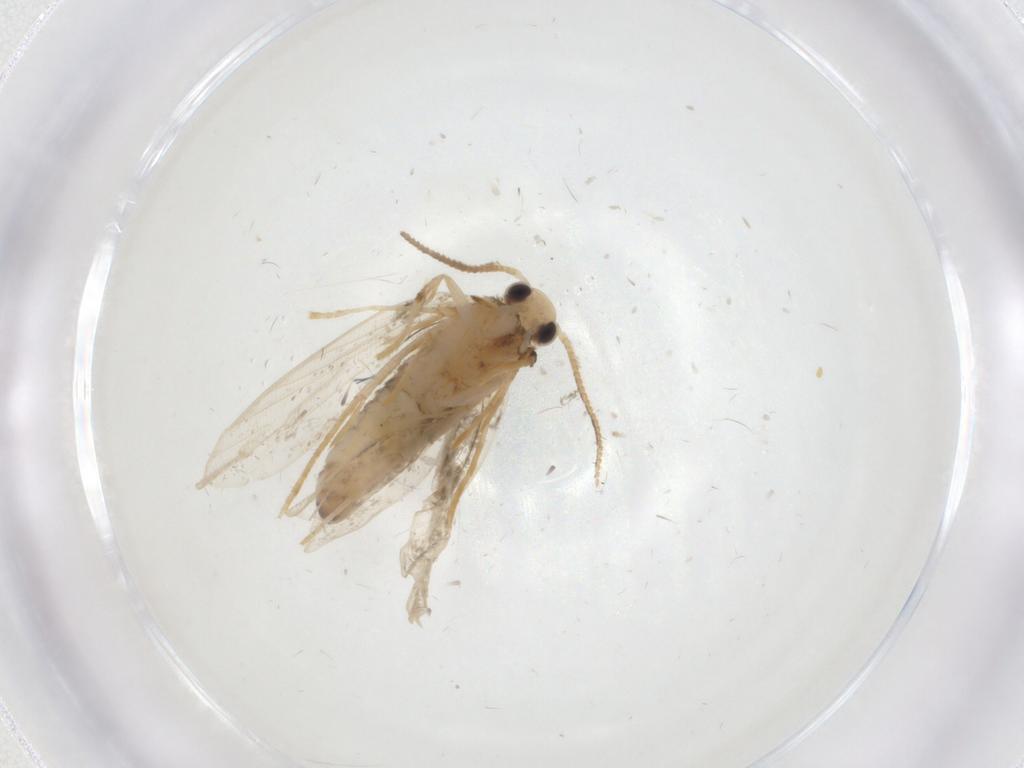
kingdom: Animalia
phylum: Arthropoda
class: Insecta
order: Lepidoptera
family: Psychidae
